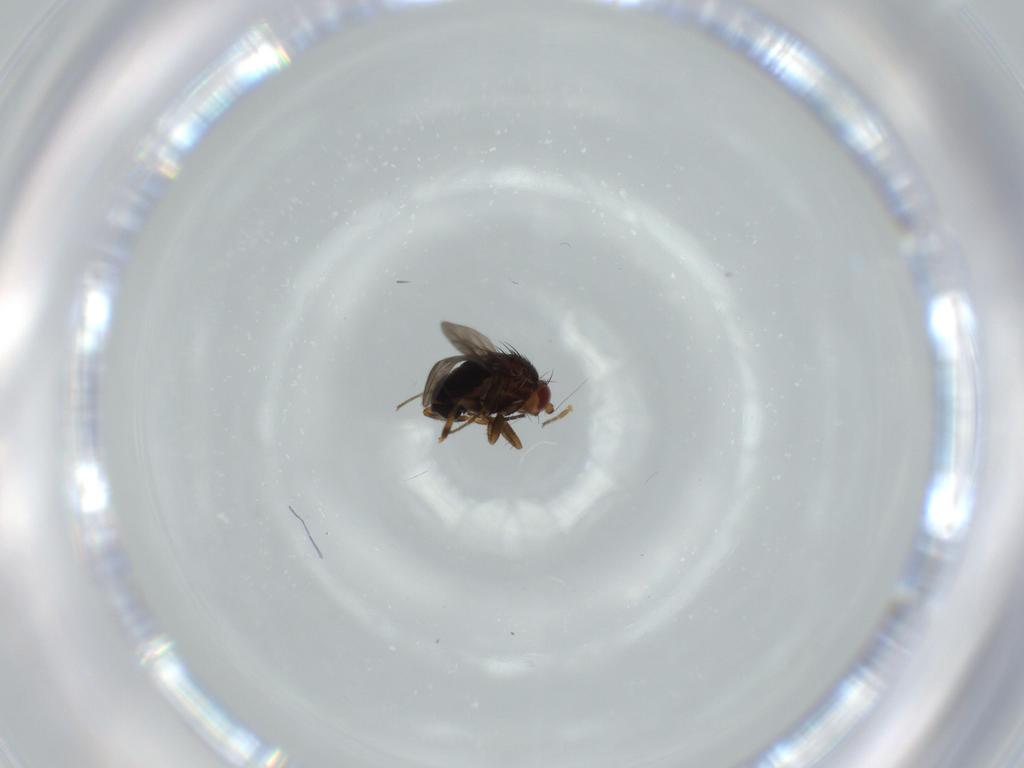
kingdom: Animalia
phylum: Arthropoda
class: Insecta
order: Diptera
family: Sphaeroceridae
